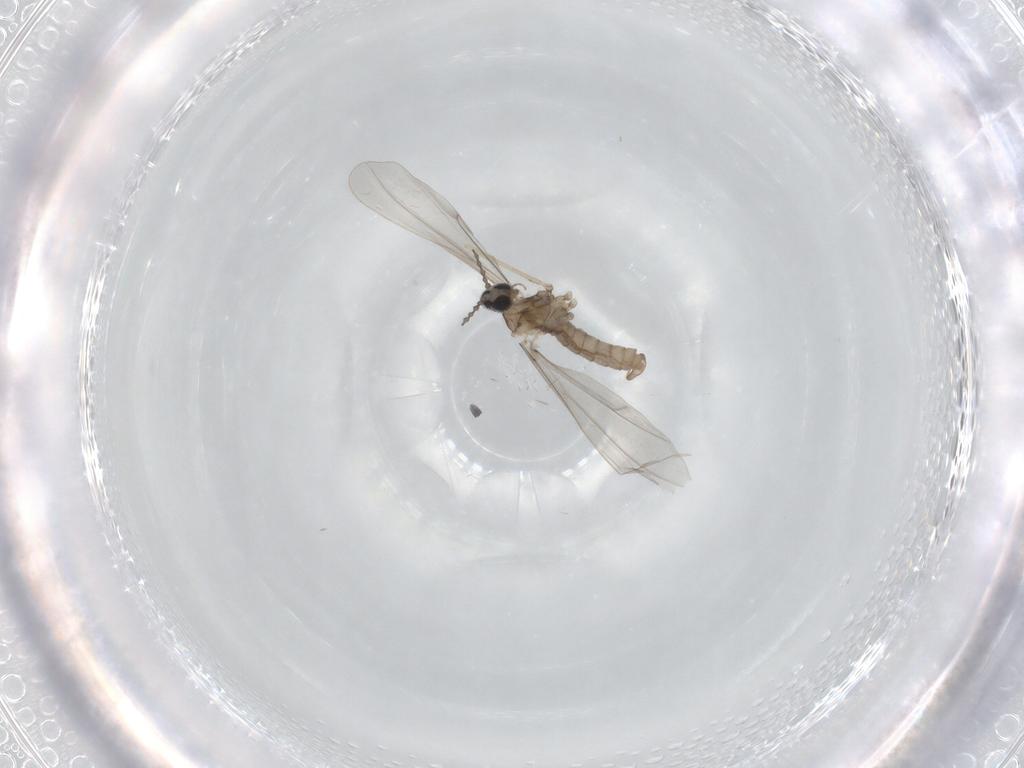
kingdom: Animalia
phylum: Arthropoda
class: Insecta
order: Diptera
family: Cecidomyiidae
